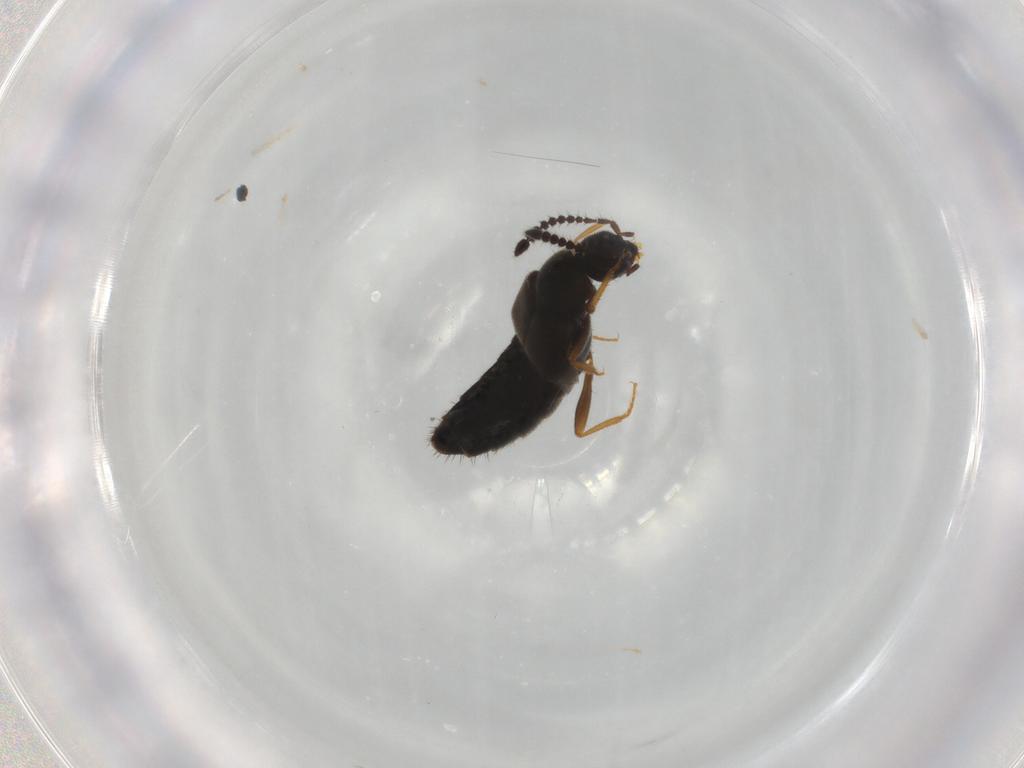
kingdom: Animalia
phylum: Arthropoda
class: Insecta
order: Coleoptera
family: Staphylinidae
